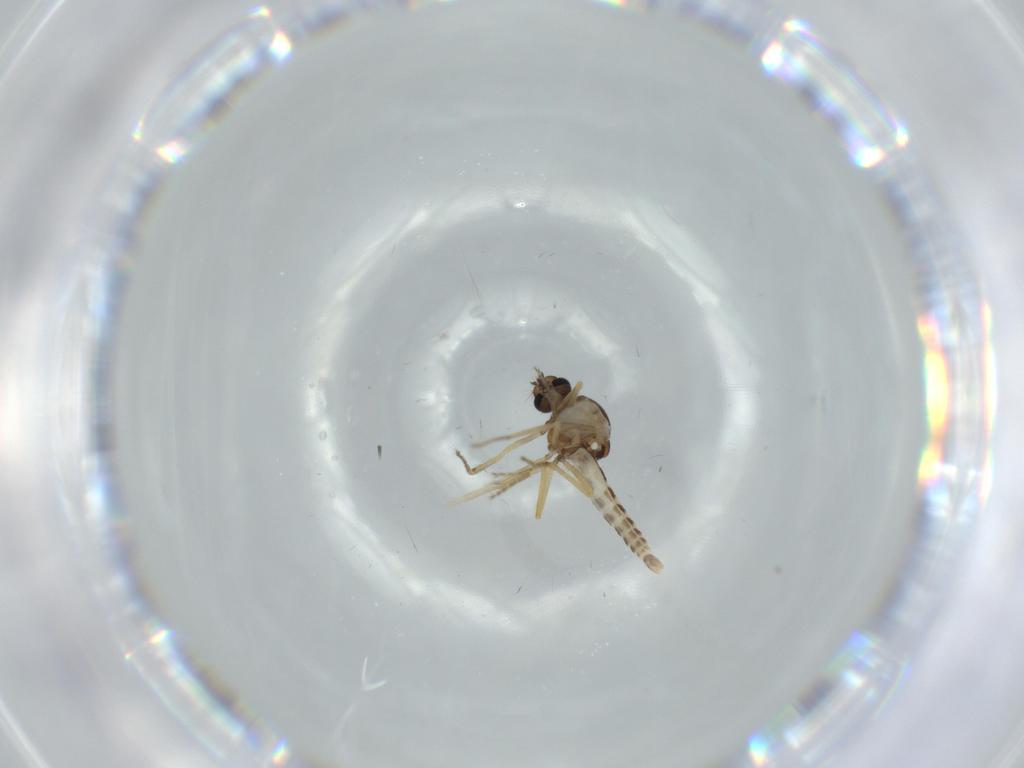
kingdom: Animalia
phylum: Arthropoda
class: Insecta
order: Diptera
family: Ceratopogonidae
